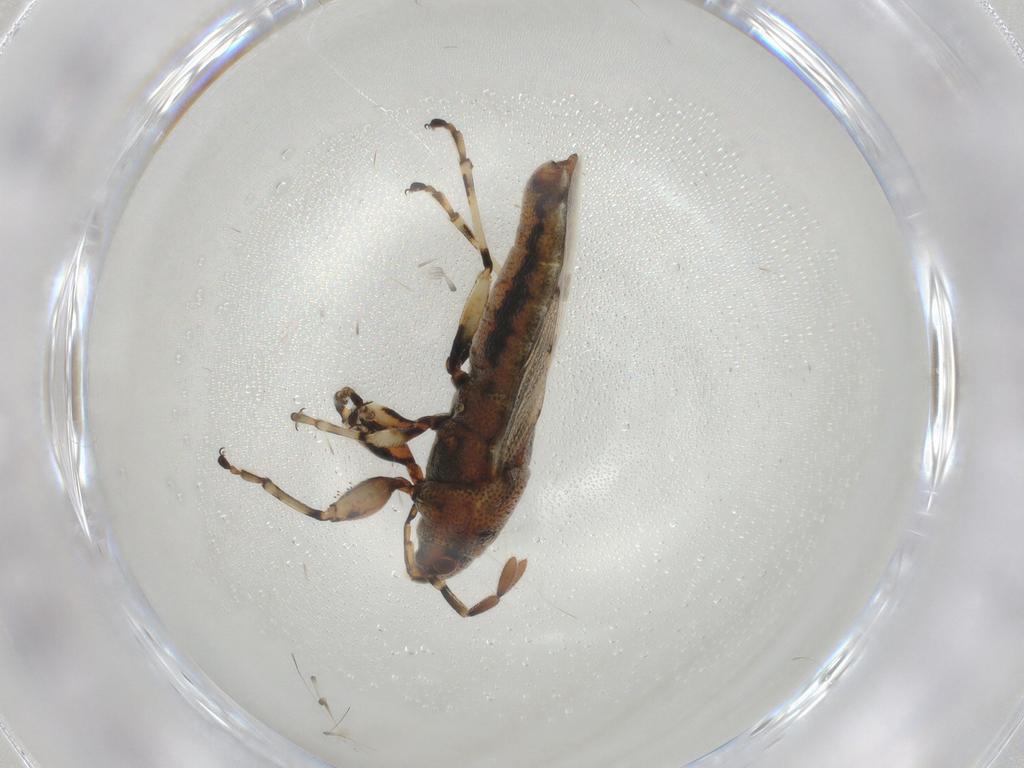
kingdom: Animalia
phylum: Arthropoda
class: Insecta
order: Hemiptera
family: Pachygronthidae
